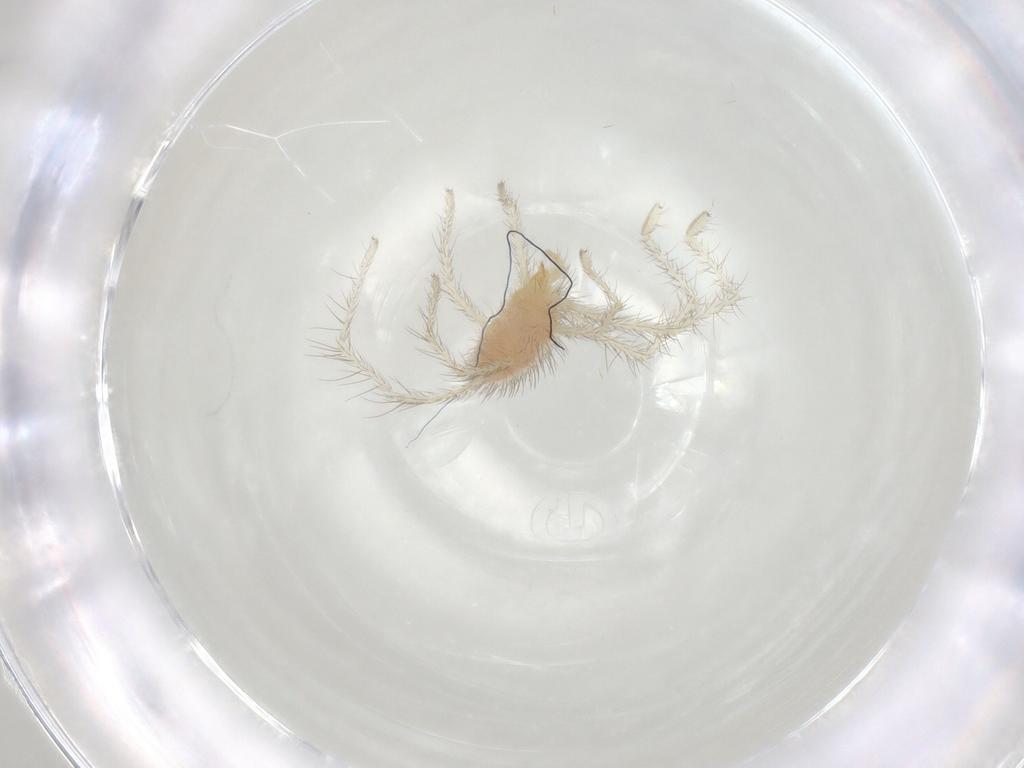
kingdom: Animalia
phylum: Arthropoda
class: Arachnida
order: Trombidiformes
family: Erythraeidae
